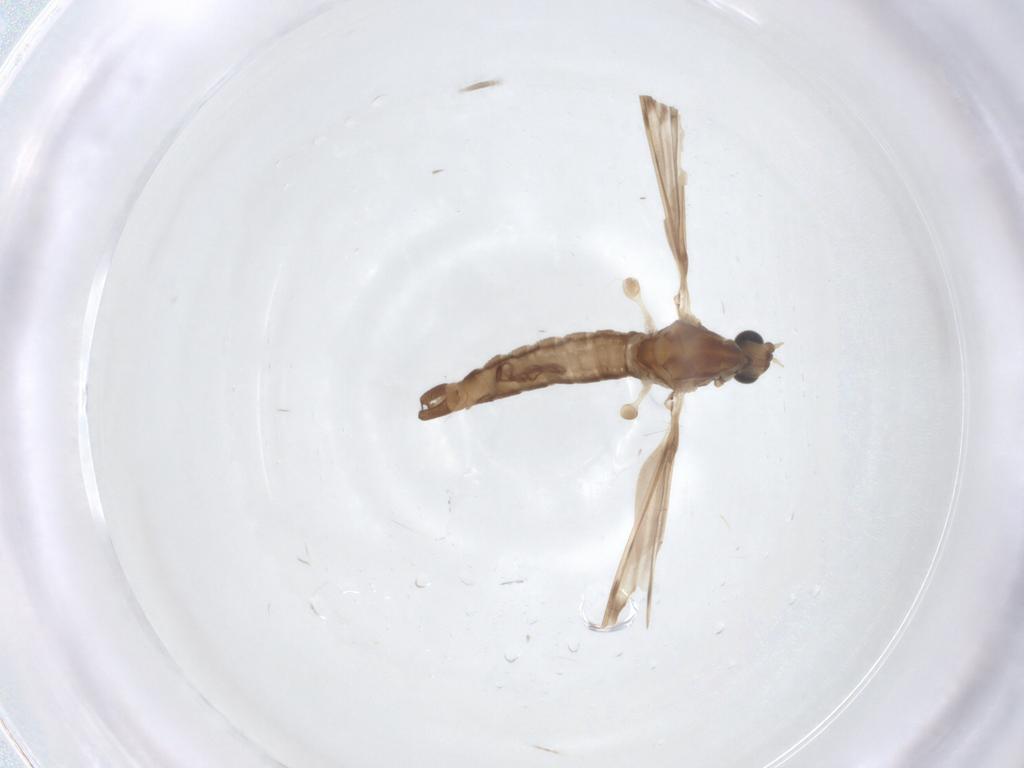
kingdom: Animalia
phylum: Arthropoda
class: Insecta
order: Diptera
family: Limoniidae
